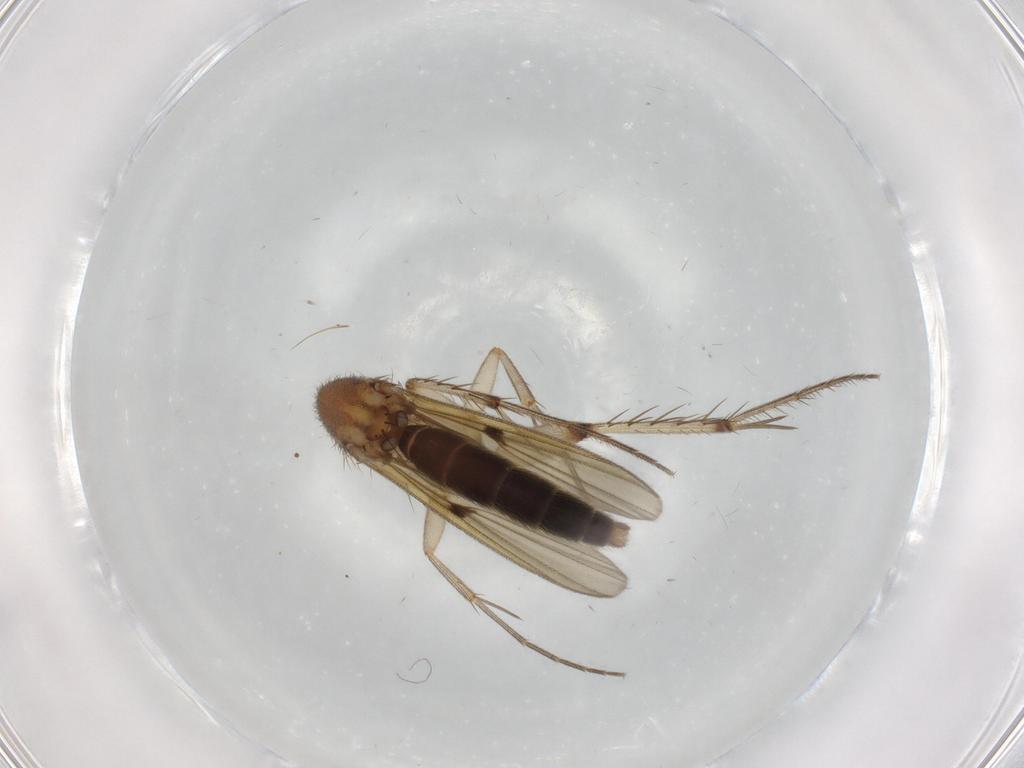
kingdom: Animalia
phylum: Arthropoda
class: Insecta
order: Diptera
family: Mycetophilidae
